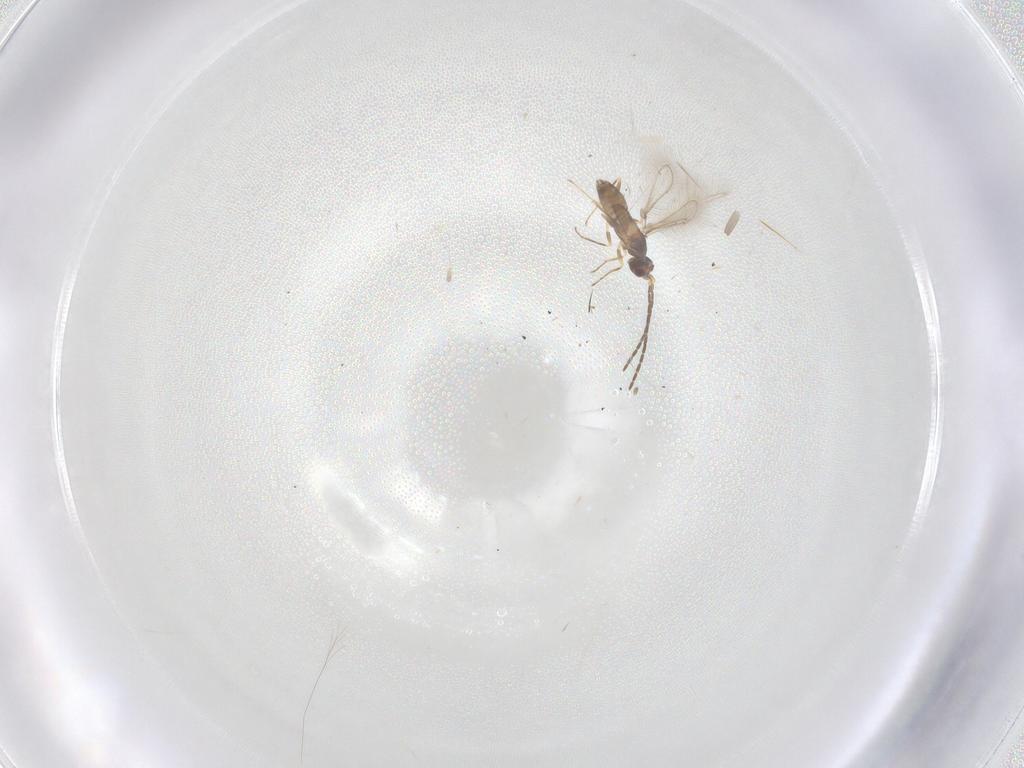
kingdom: Animalia
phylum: Arthropoda
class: Insecta
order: Hymenoptera
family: Mymaridae
